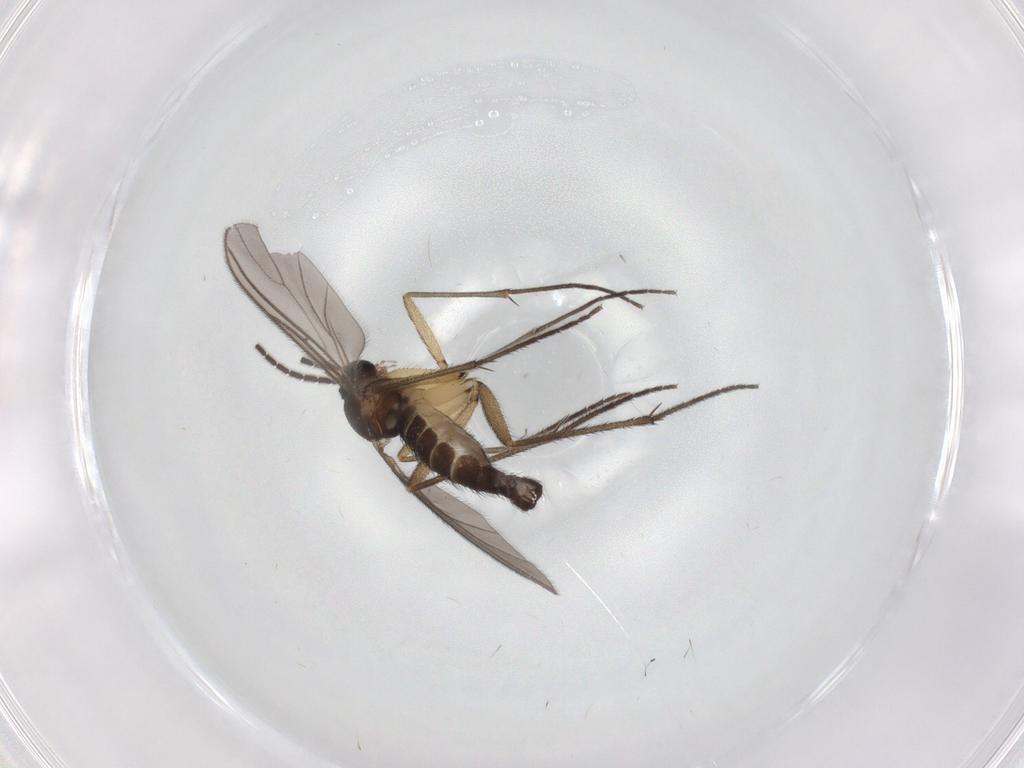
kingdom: Animalia
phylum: Arthropoda
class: Insecta
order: Diptera
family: Sciaridae
